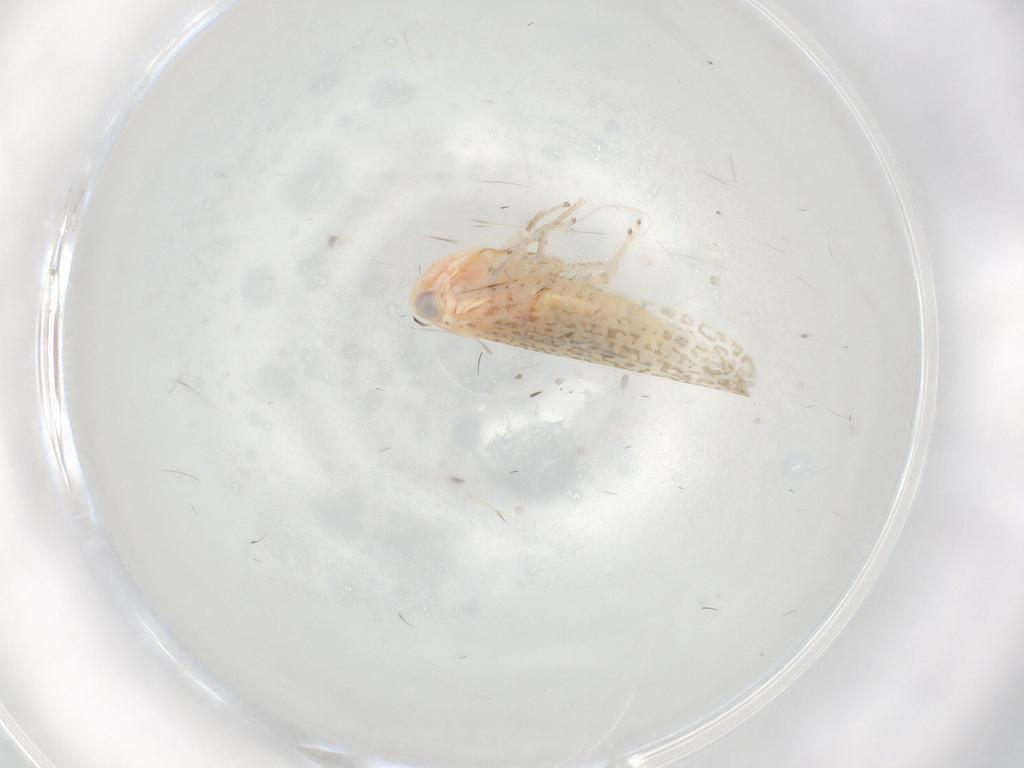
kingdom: Animalia
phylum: Arthropoda
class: Insecta
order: Hemiptera
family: Cicadellidae
